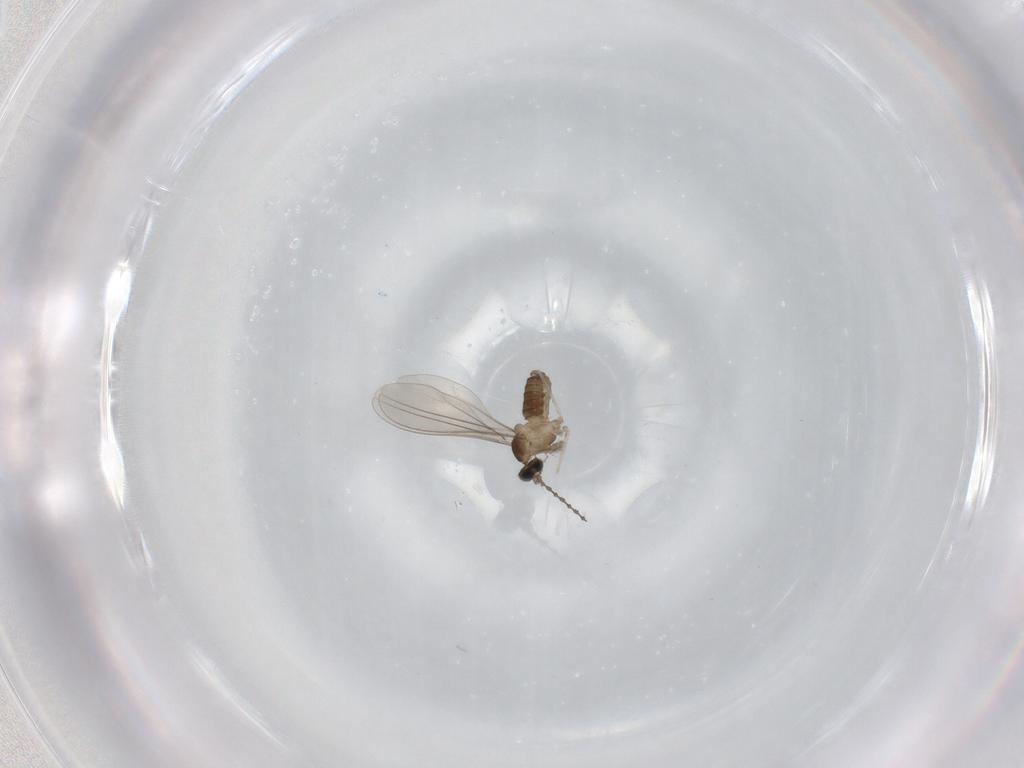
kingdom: Animalia
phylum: Arthropoda
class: Insecta
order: Diptera
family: Cecidomyiidae
